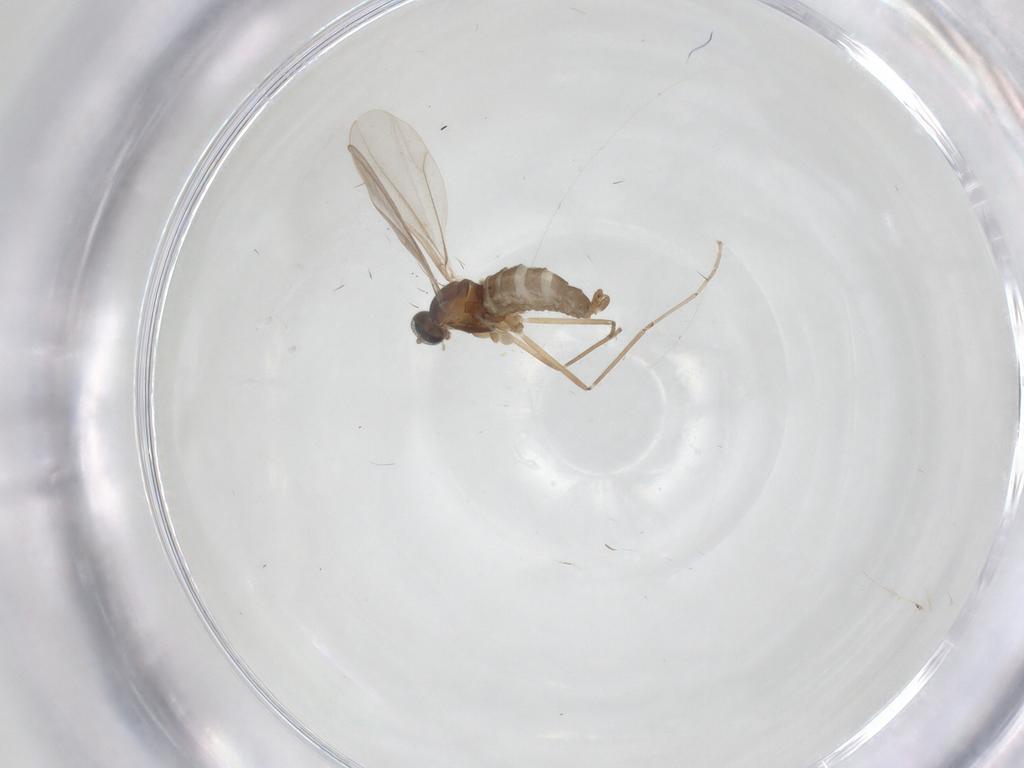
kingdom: Animalia
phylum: Arthropoda
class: Insecta
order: Diptera
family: Cecidomyiidae
